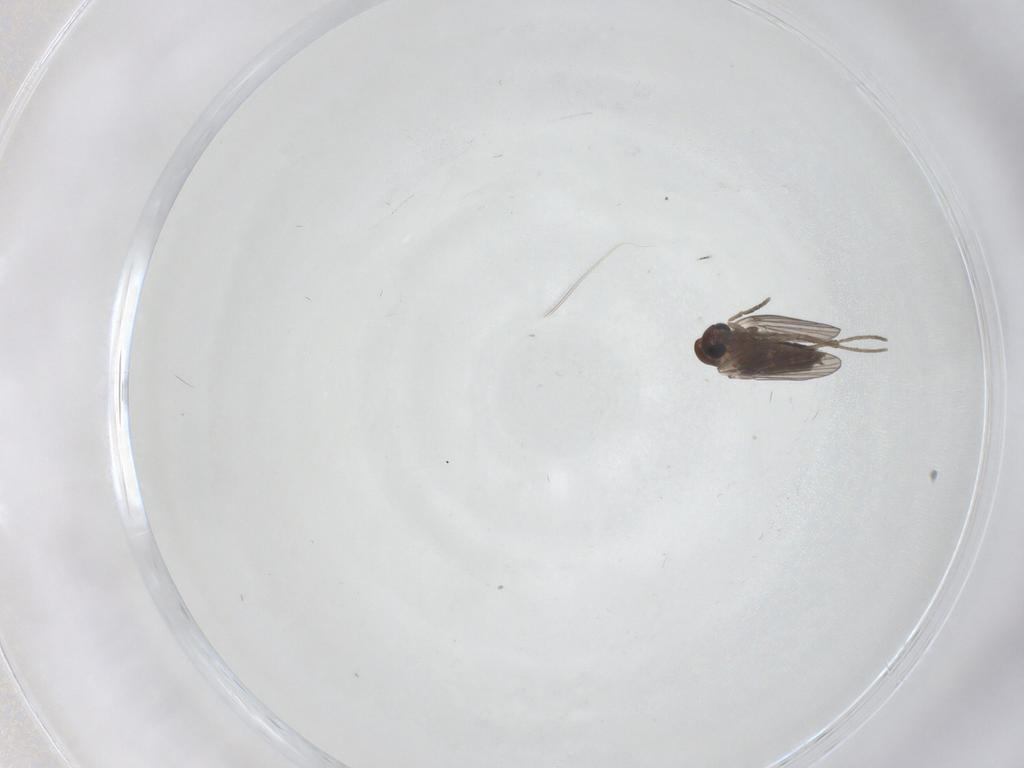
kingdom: Animalia
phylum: Arthropoda
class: Insecta
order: Diptera
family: Cecidomyiidae
